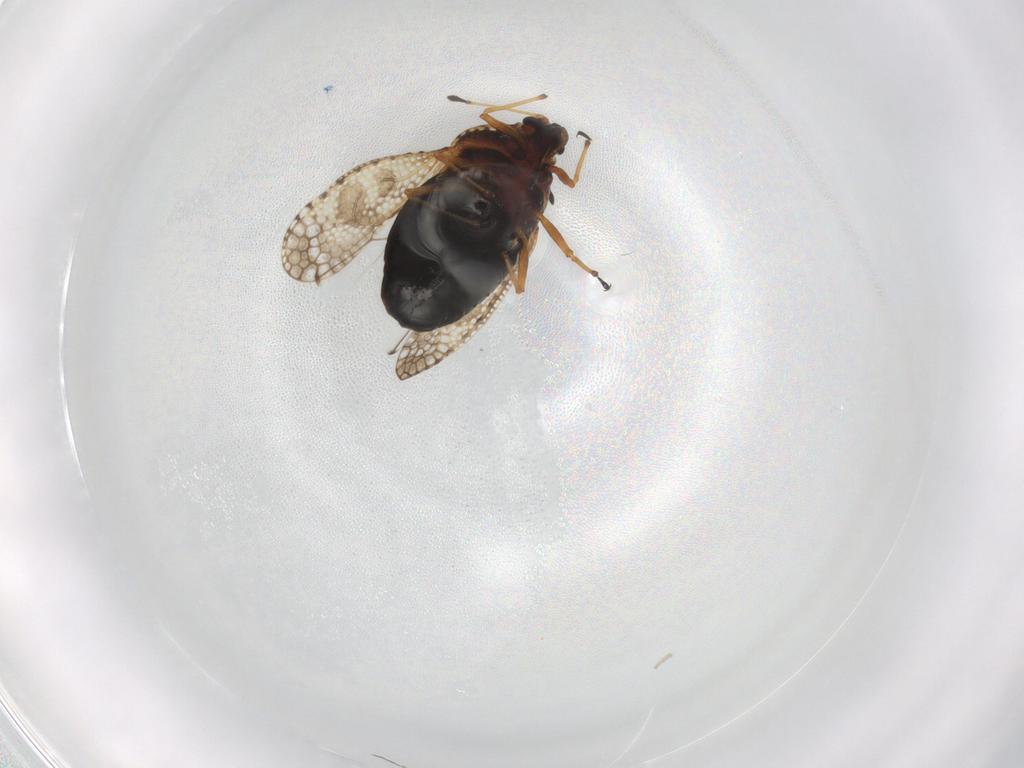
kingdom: Animalia
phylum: Arthropoda
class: Insecta
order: Hemiptera
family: Tingidae
